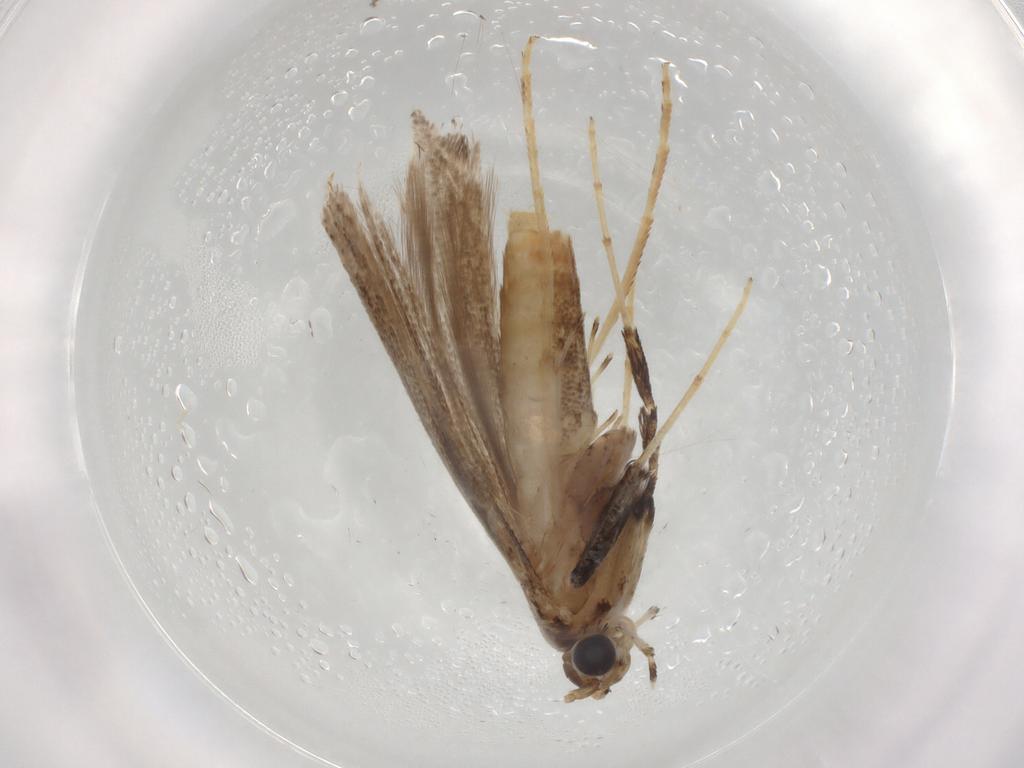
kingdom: Animalia
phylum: Arthropoda
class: Insecta
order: Lepidoptera
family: Gracillariidae
